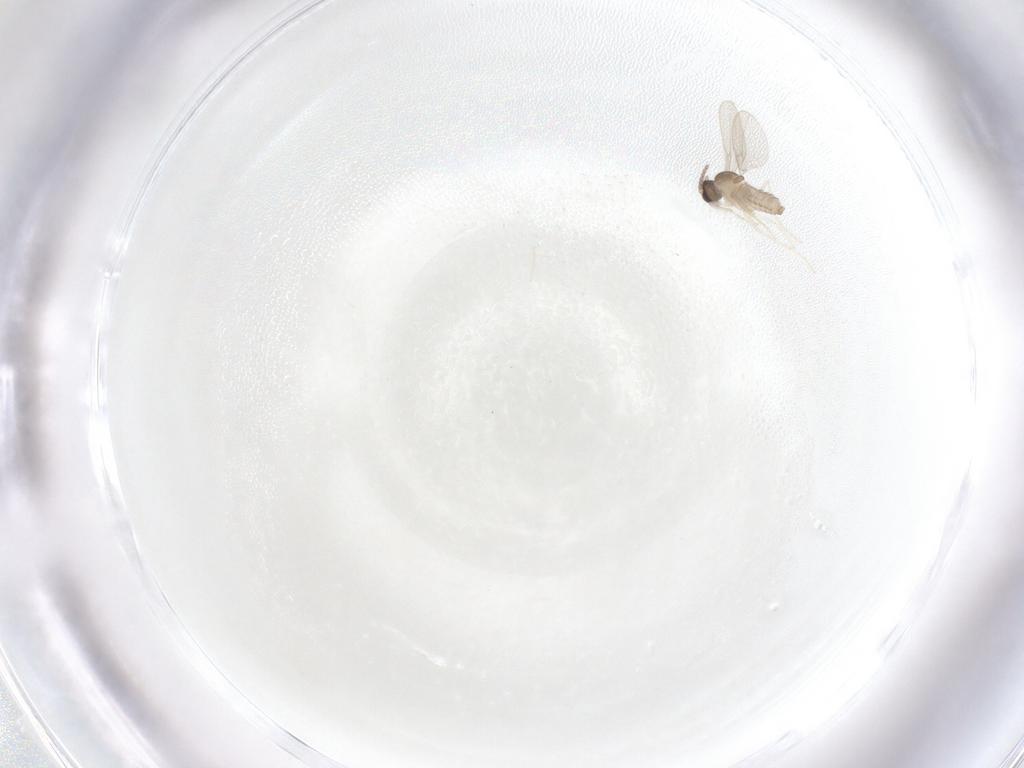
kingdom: Animalia
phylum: Arthropoda
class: Insecta
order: Diptera
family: Cecidomyiidae
